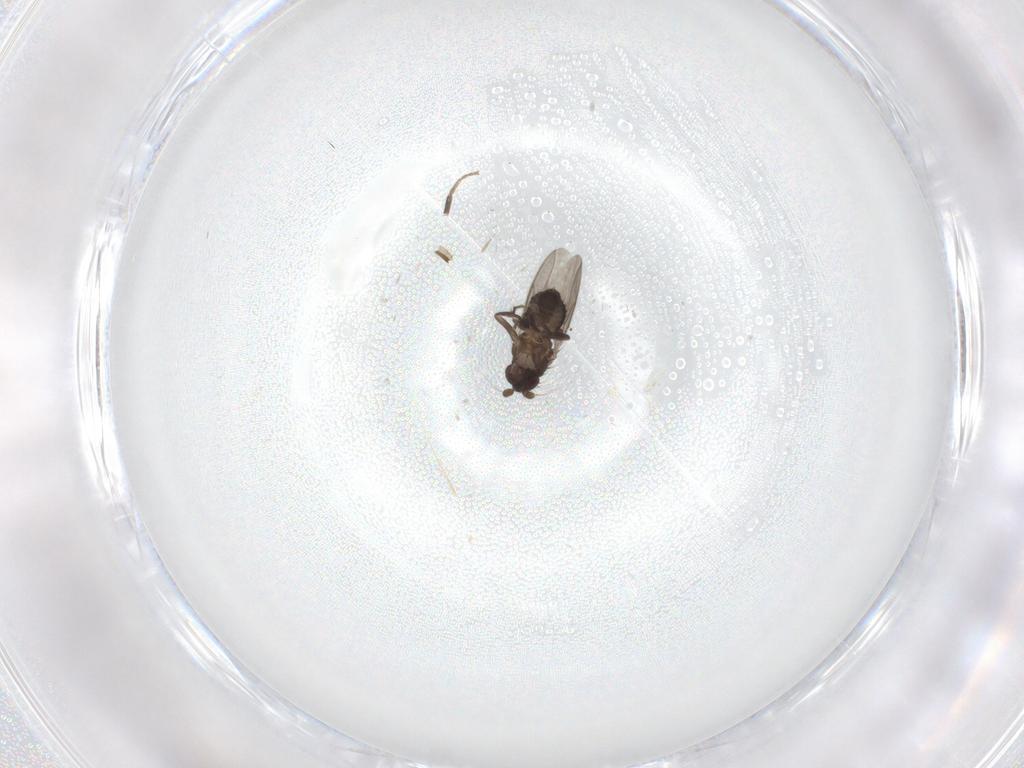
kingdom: Animalia
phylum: Arthropoda
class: Insecta
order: Diptera
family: Sphaeroceridae
